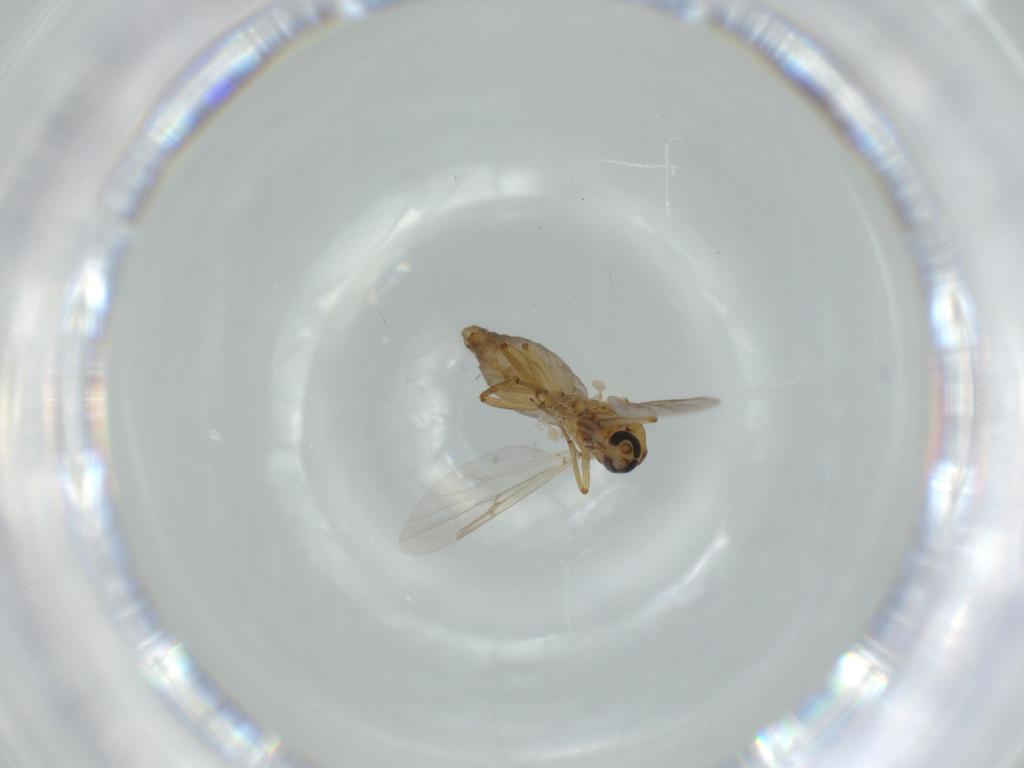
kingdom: Animalia
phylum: Arthropoda
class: Insecta
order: Diptera
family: Ceratopogonidae
